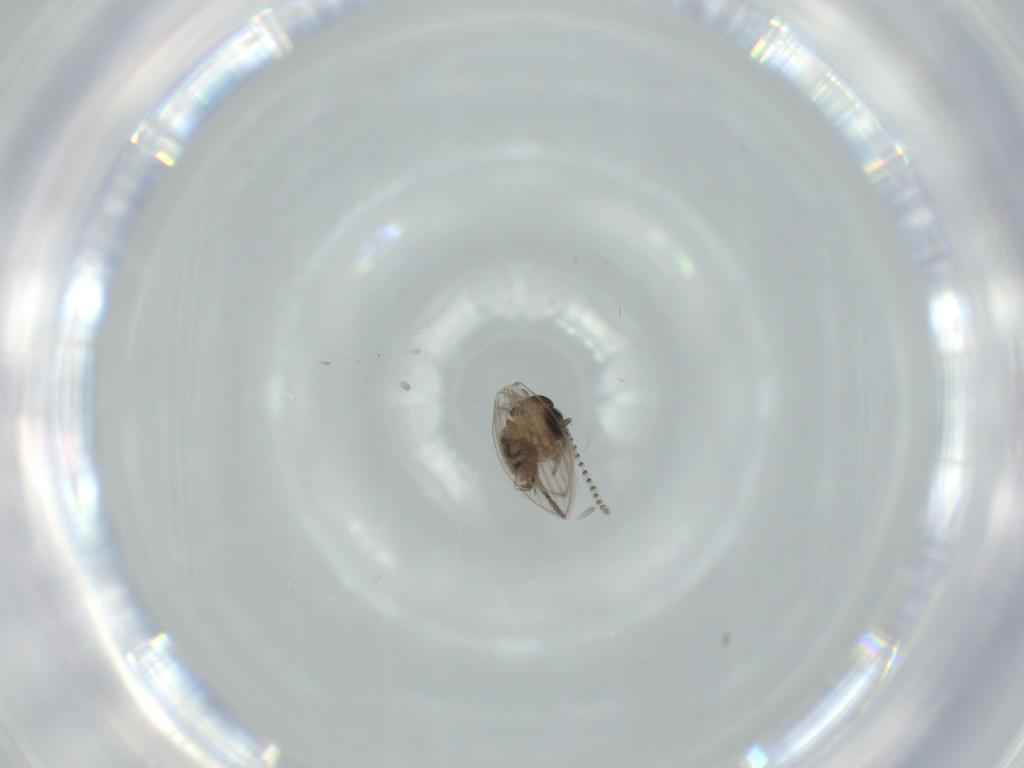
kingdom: Animalia
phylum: Arthropoda
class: Insecta
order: Diptera
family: Psychodidae
